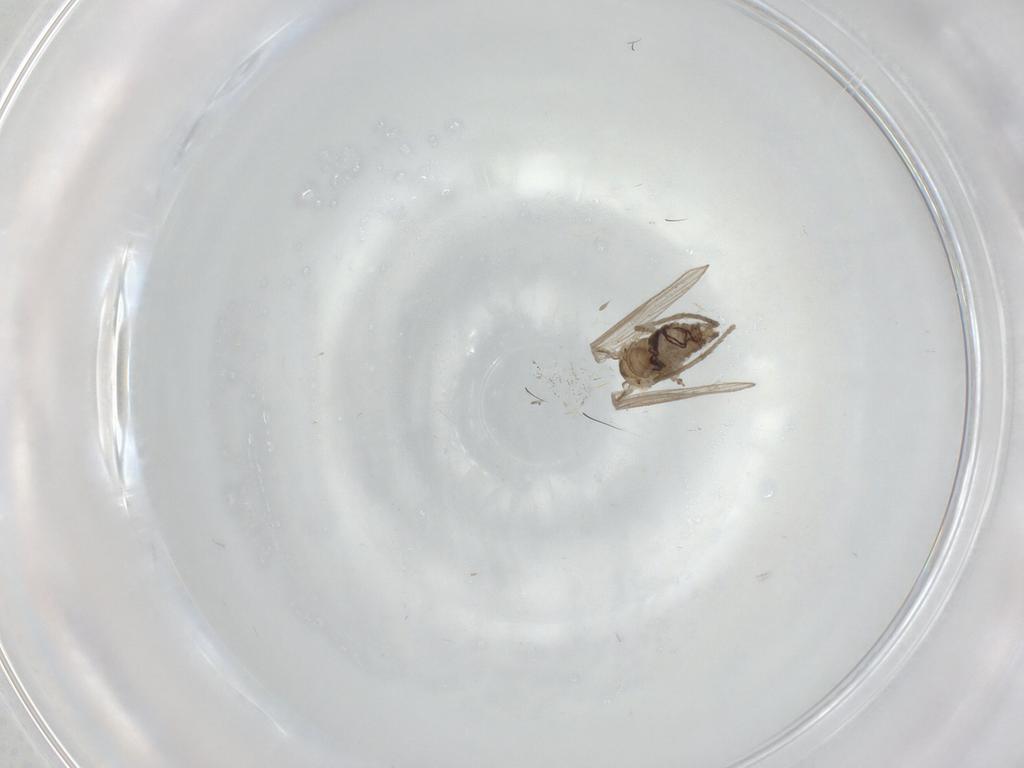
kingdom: Animalia
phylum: Arthropoda
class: Insecta
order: Diptera
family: Psychodidae
